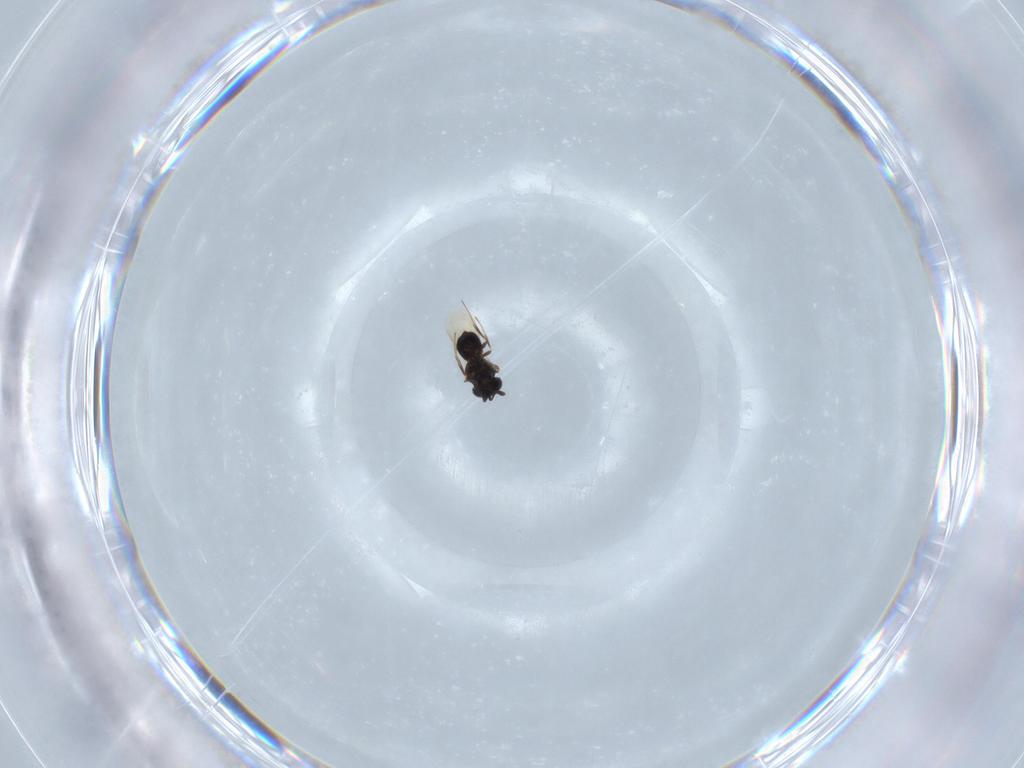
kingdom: Animalia
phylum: Arthropoda
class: Insecta
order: Hymenoptera
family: Scelionidae
